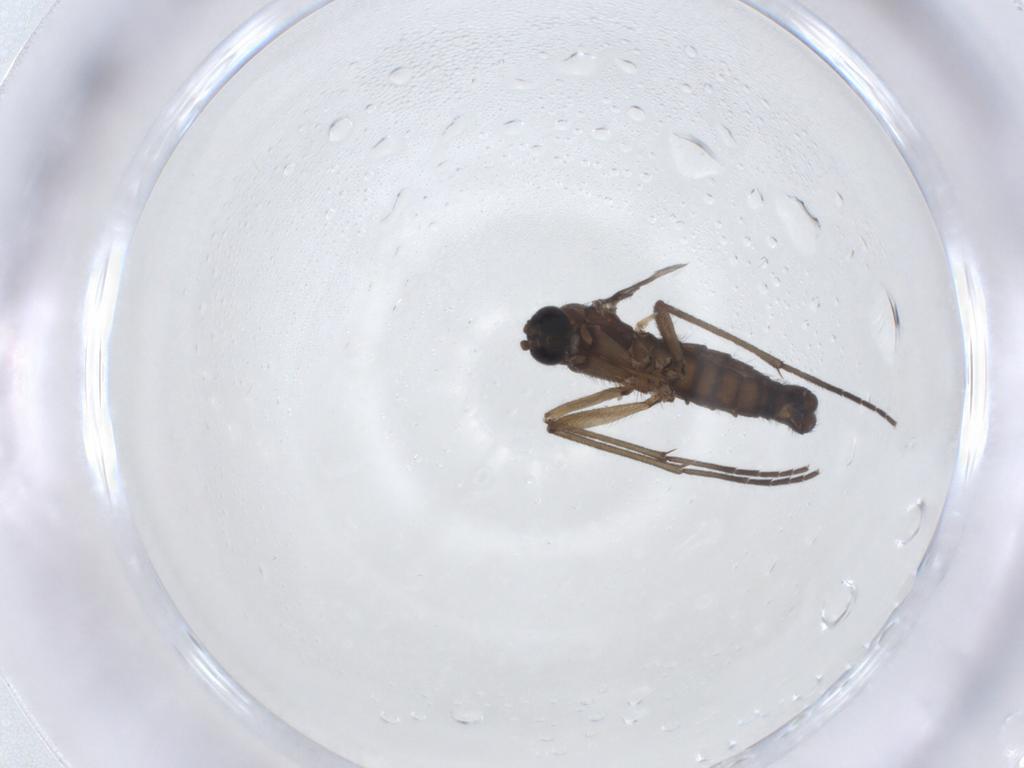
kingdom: Animalia
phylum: Arthropoda
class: Insecta
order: Diptera
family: Sciaridae
